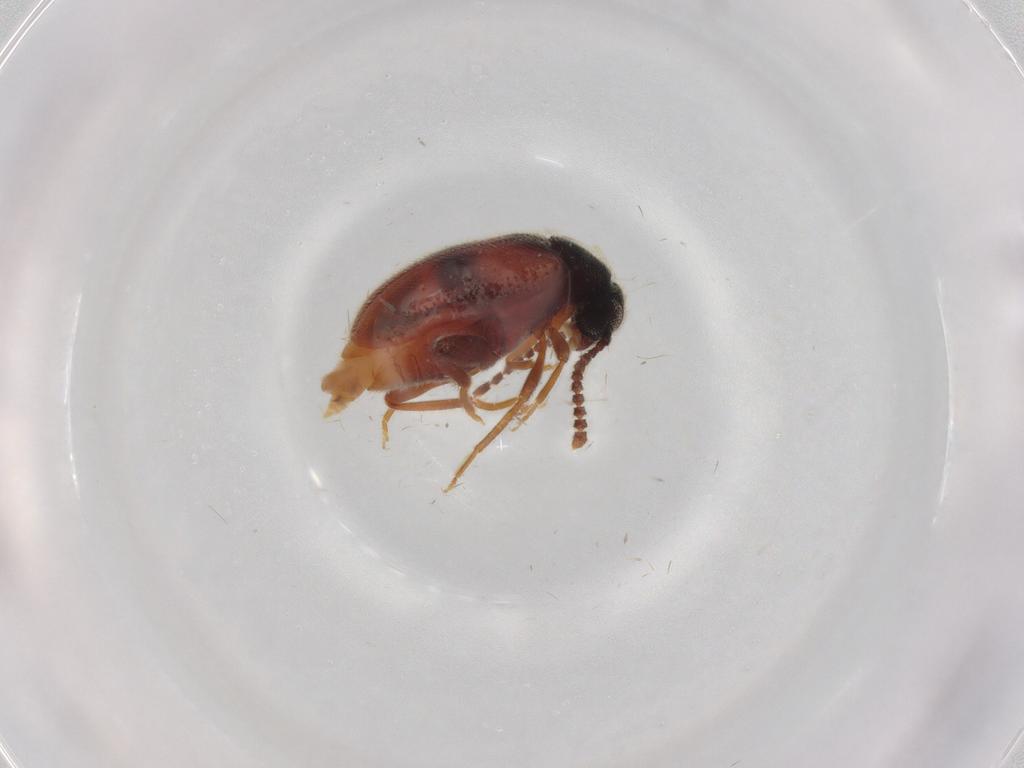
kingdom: Animalia
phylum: Arthropoda
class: Insecta
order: Coleoptera
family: Aderidae
